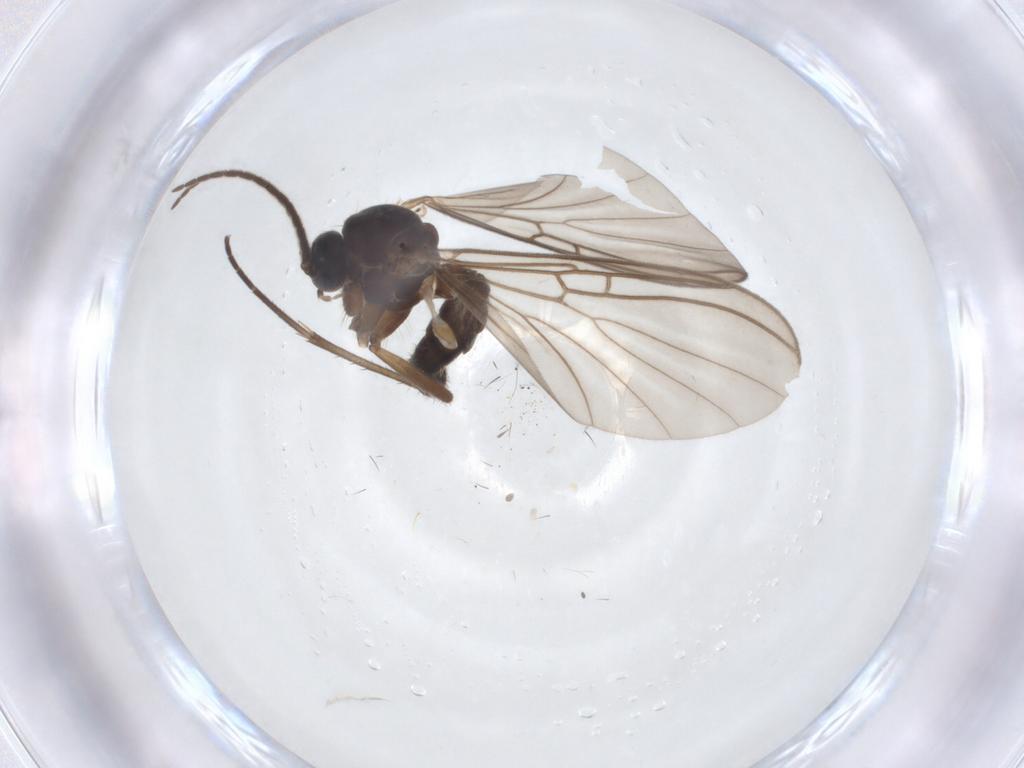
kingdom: Animalia
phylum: Arthropoda
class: Insecta
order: Diptera
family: Mycetophilidae
